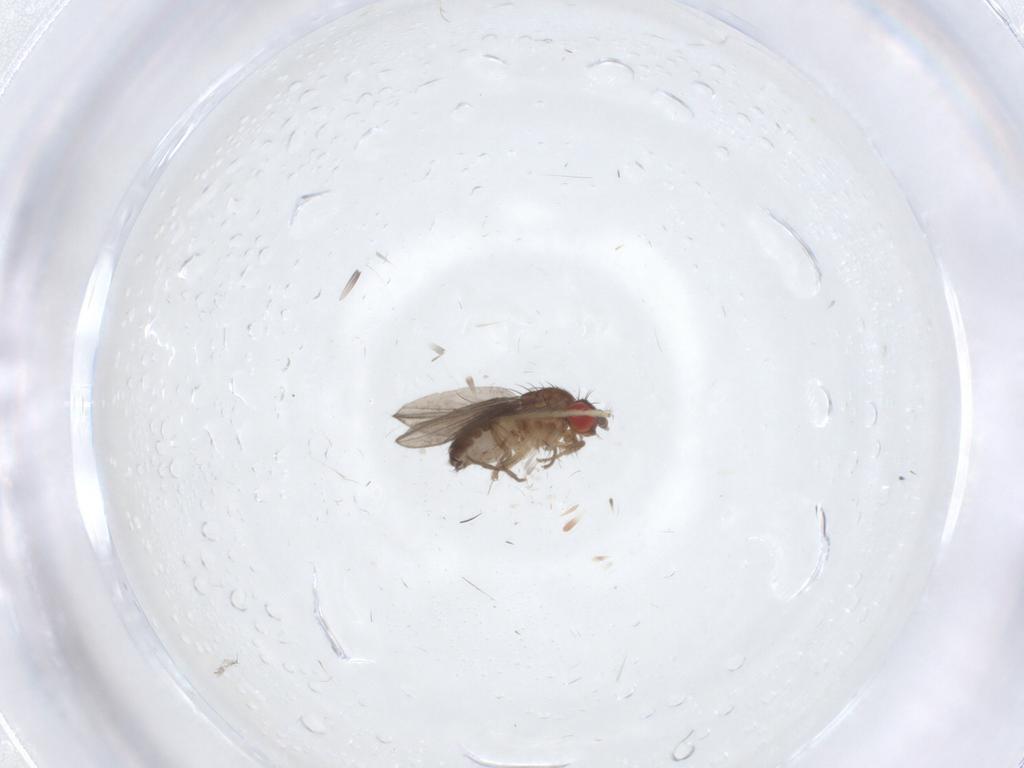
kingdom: Animalia
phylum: Arthropoda
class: Insecta
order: Diptera
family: Drosophilidae
